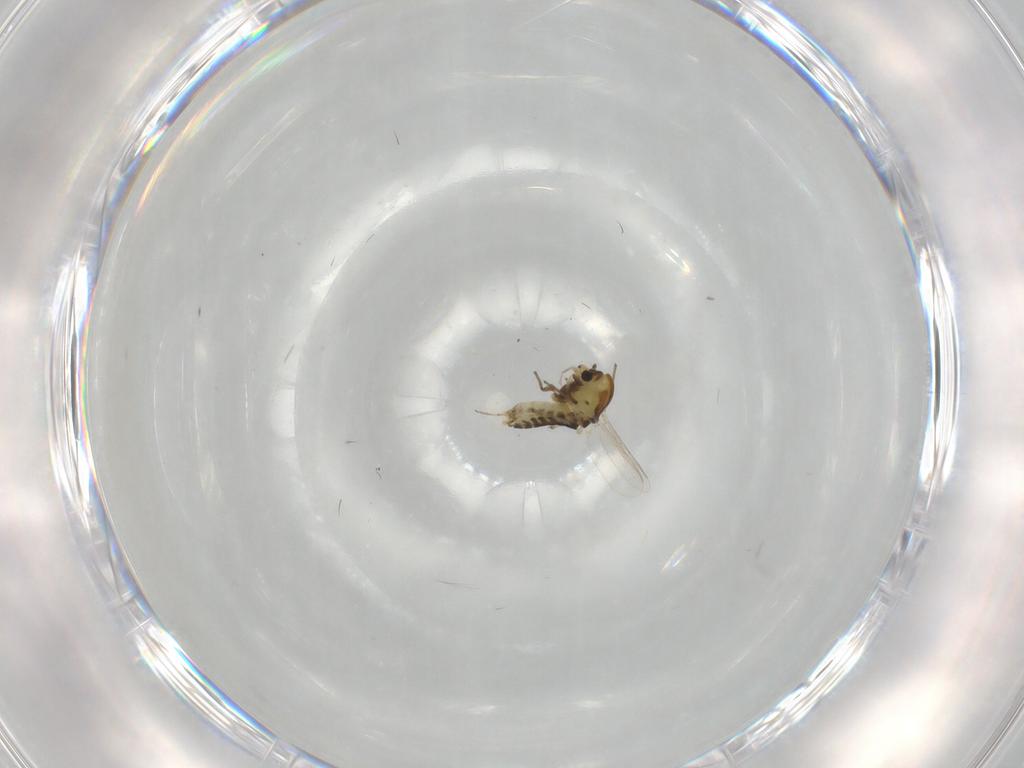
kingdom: Animalia
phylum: Arthropoda
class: Insecta
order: Diptera
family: Chironomidae
